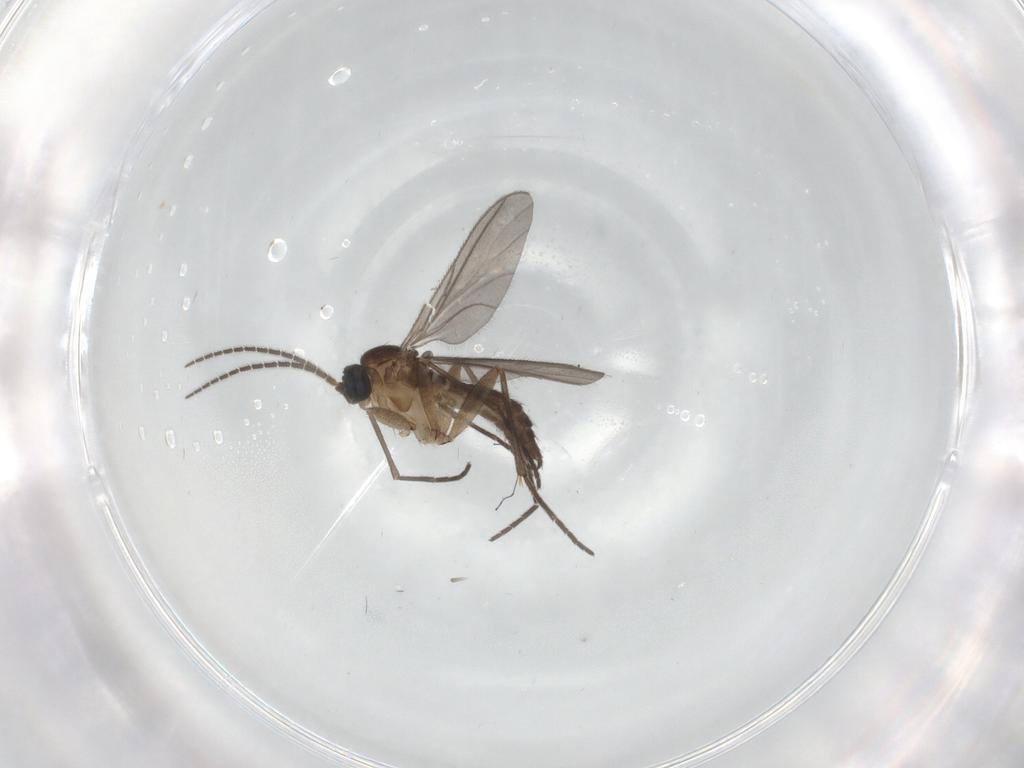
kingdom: Animalia
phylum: Arthropoda
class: Insecta
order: Diptera
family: Sciaridae
